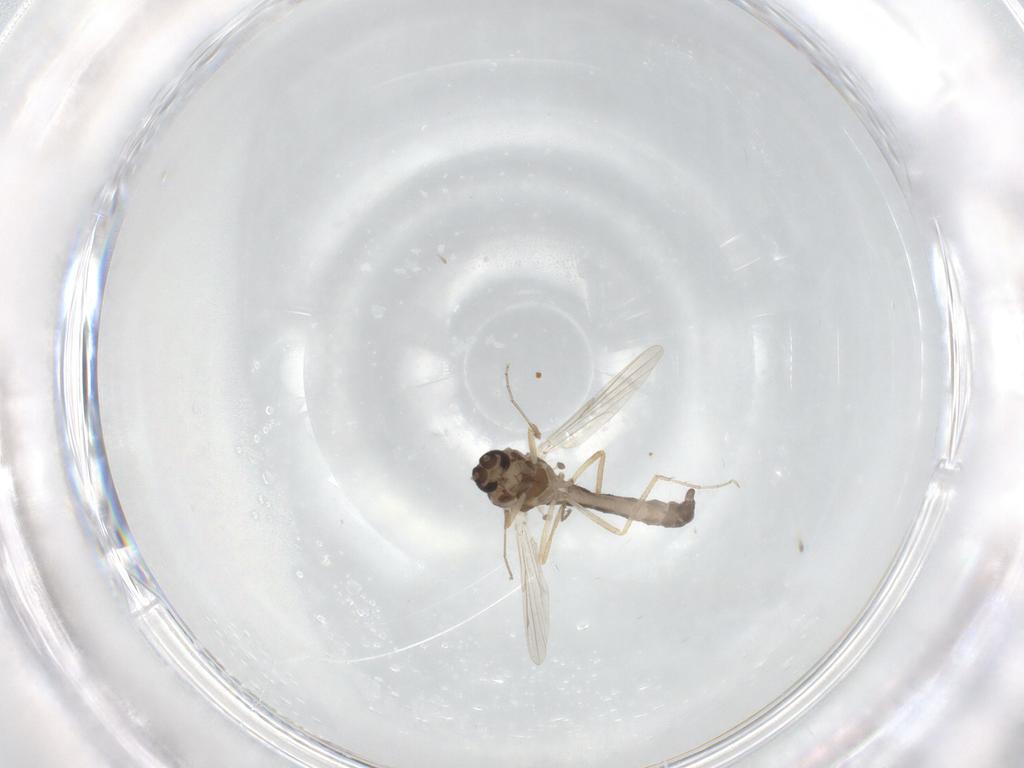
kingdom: Animalia
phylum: Arthropoda
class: Insecta
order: Diptera
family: Ceratopogonidae
